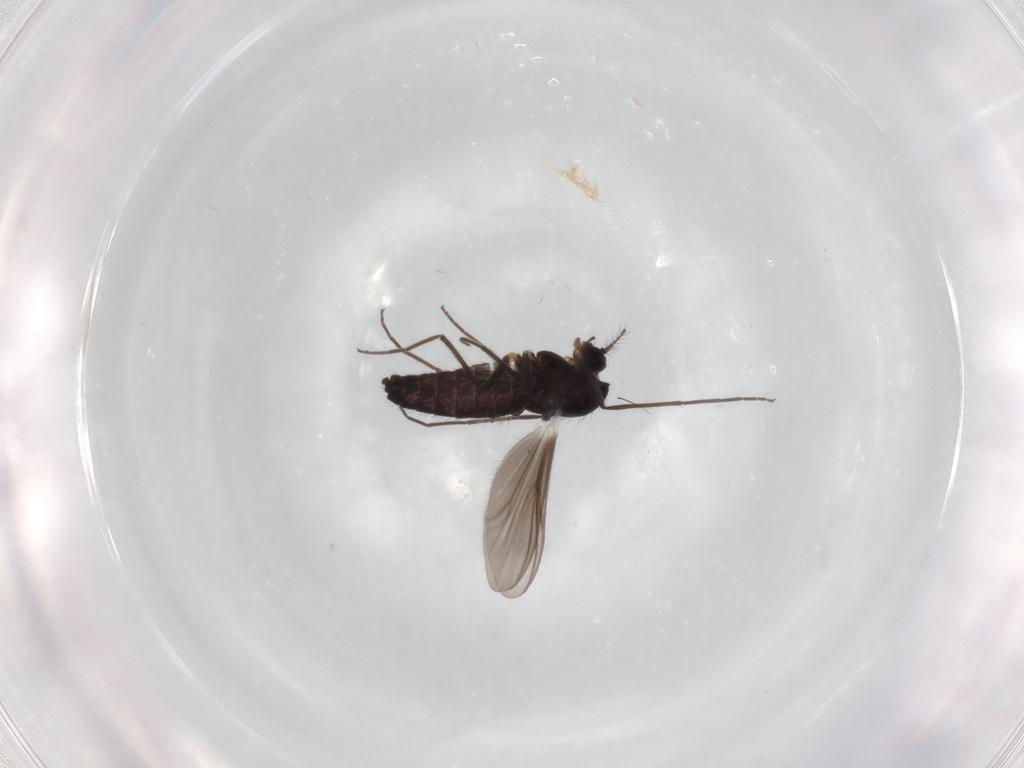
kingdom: Animalia
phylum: Arthropoda
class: Insecta
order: Diptera
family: Chironomidae
